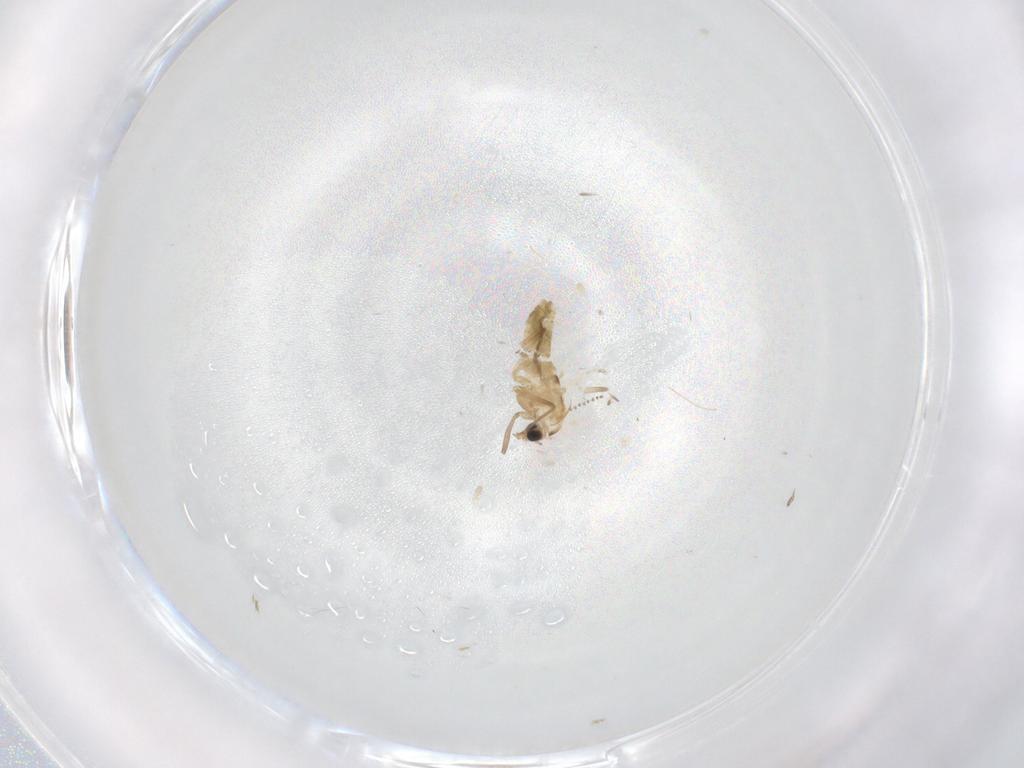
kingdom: Animalia
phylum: Arthropoda
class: Insecta
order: Diptera
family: Chironomidae
